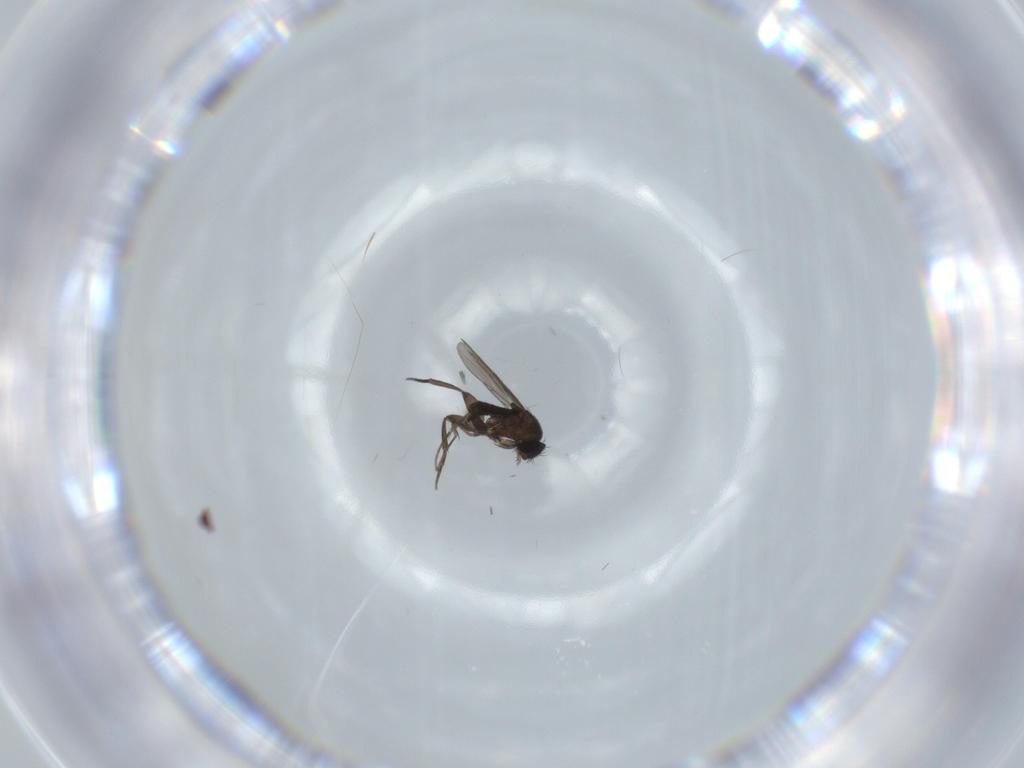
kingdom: Animalia
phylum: Arthropoda
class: Insecta
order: Diptera
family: Phoridae
